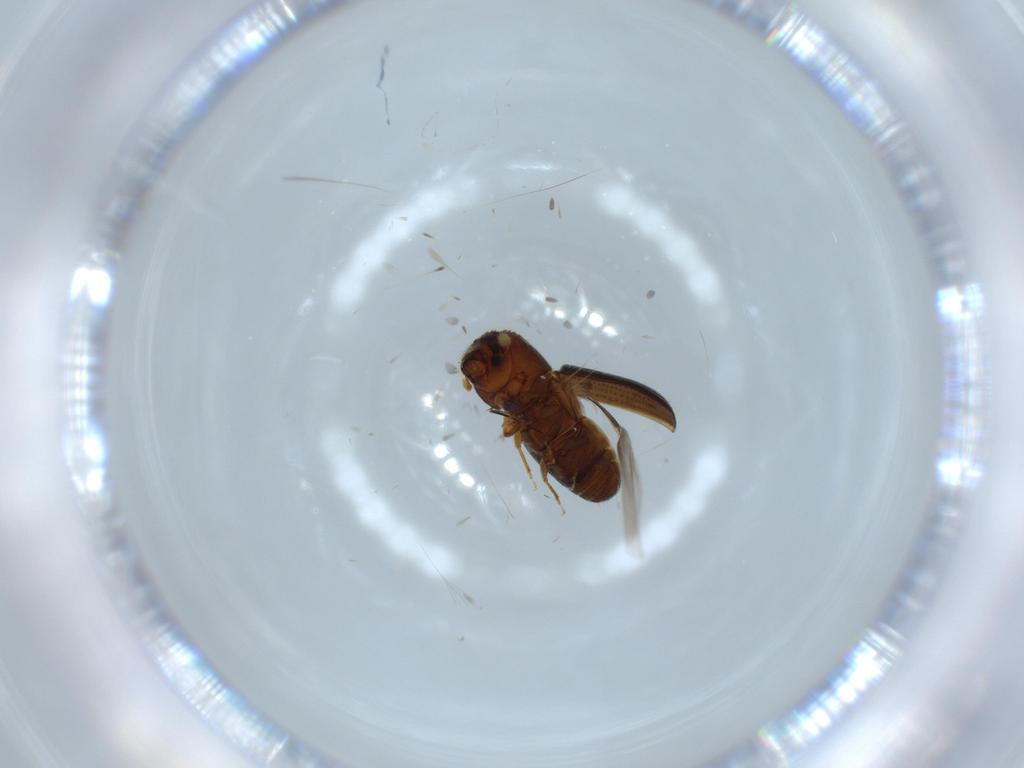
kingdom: Animalia
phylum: Arthropoda
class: Insecta
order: Coleoptera
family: Curculionidae
